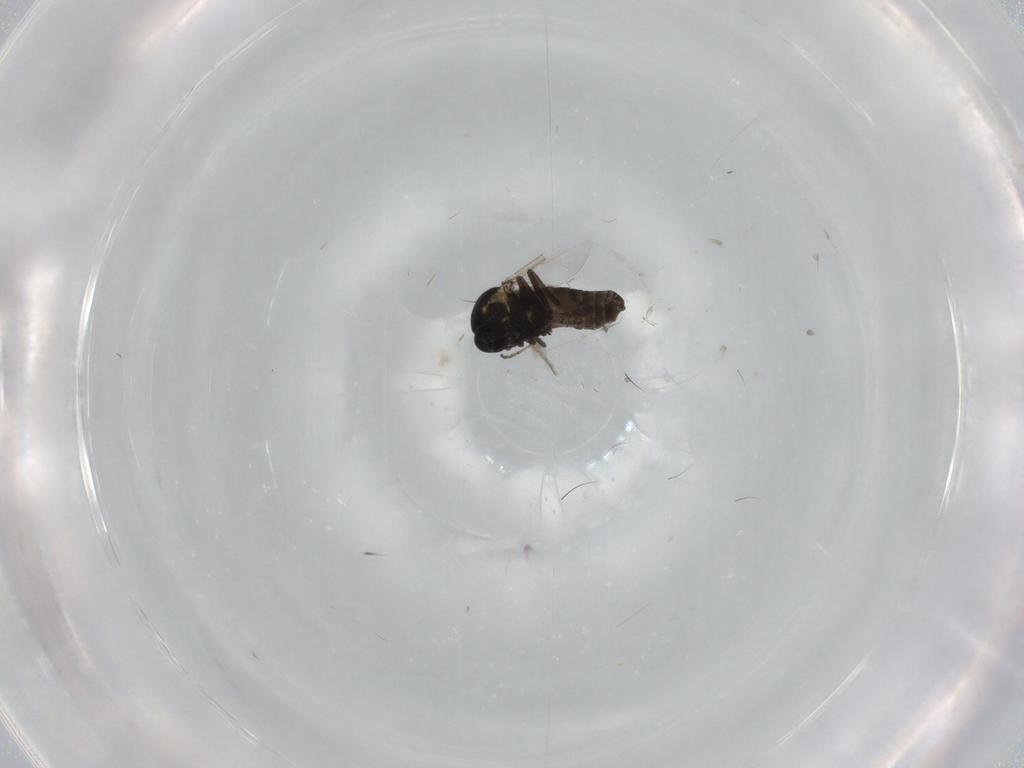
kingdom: Animalia
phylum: Arthropoda
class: Insecta
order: Diptera
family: Ceratopogonidae
